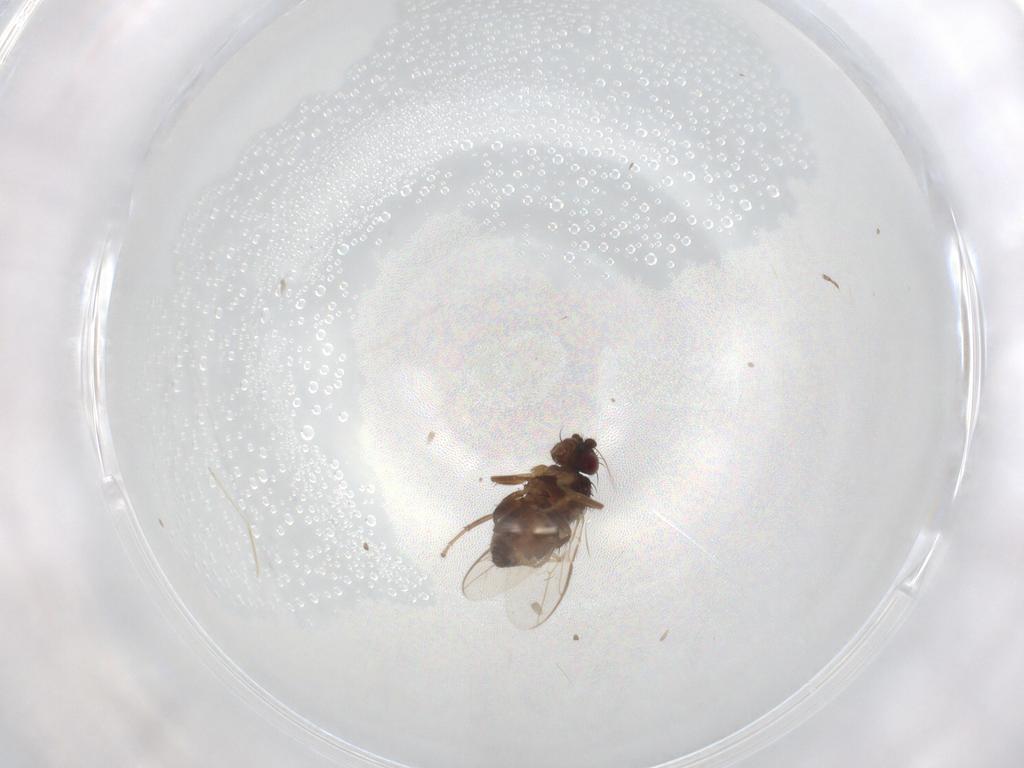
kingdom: Animalia
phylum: Arthropoda
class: Insecta
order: Diptera
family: Sphaeroceridae
